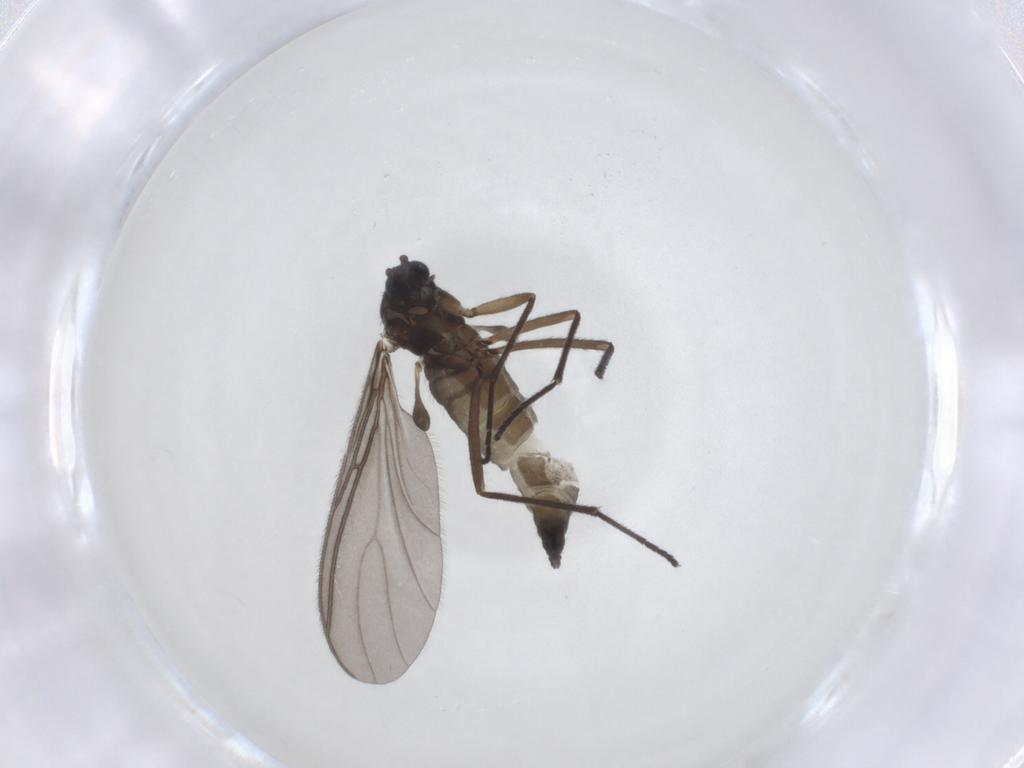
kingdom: Animalia
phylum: Arthropoda
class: Insecta
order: Diptera
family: Sciaridae
